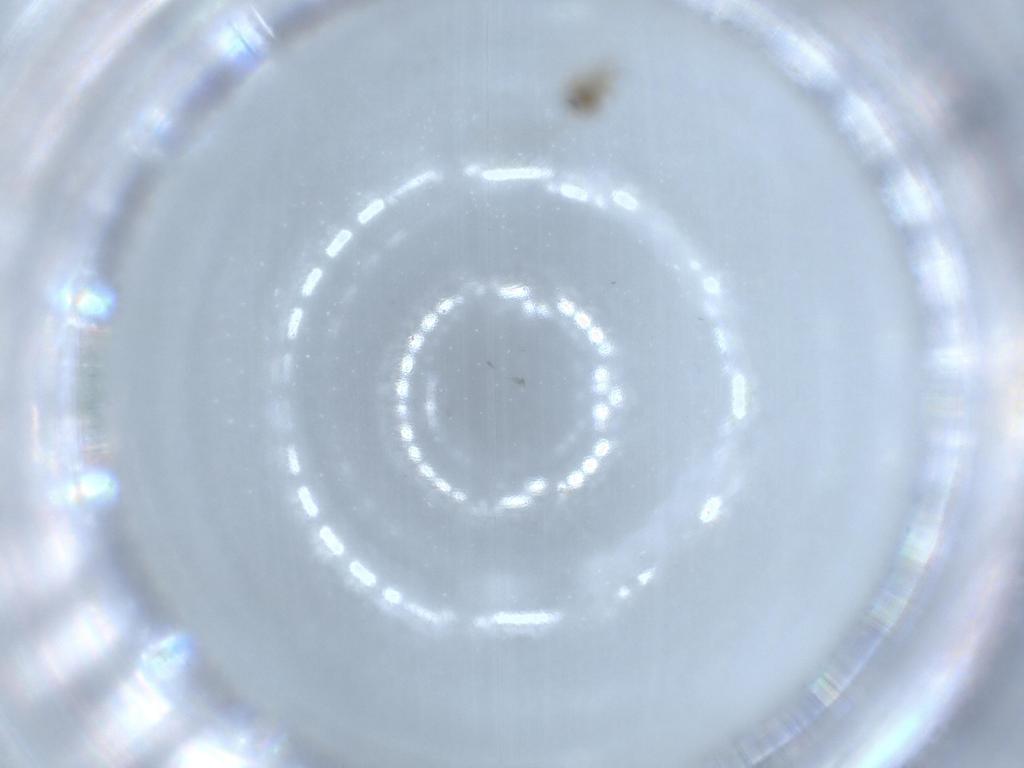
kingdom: Animalia
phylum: Arthropoda
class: Insecta
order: Diptera
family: Cecidomyiidae
